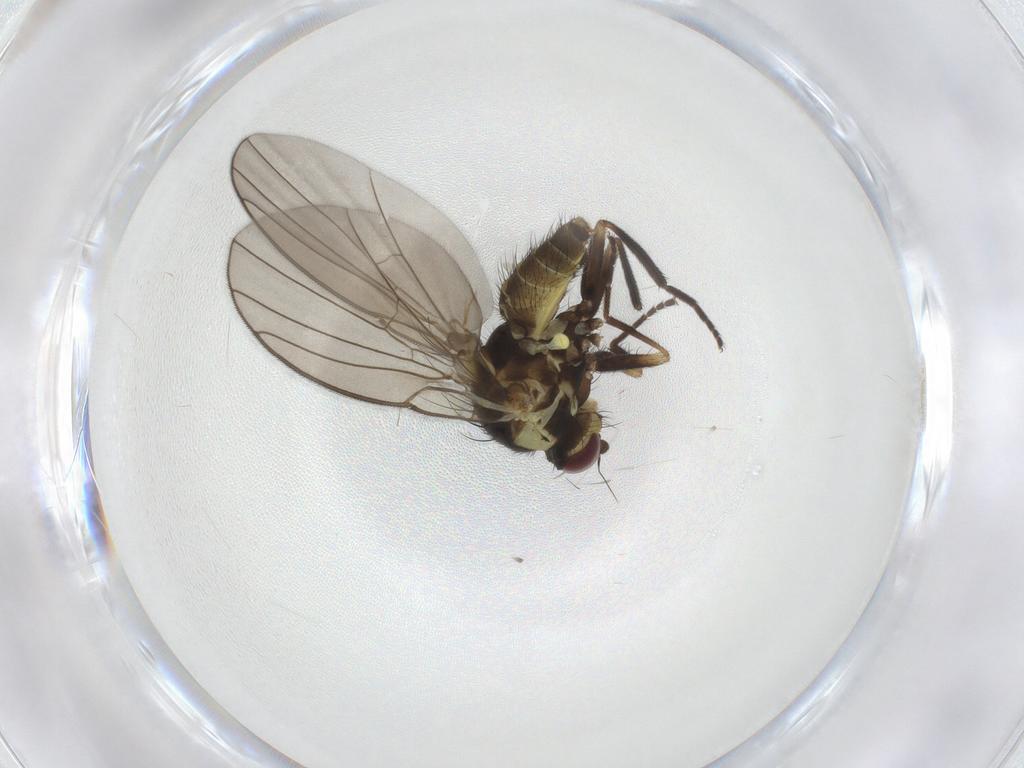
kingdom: Animalia
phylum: Arthropoda
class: Insecta
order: Diptera
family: Agromyzidae
